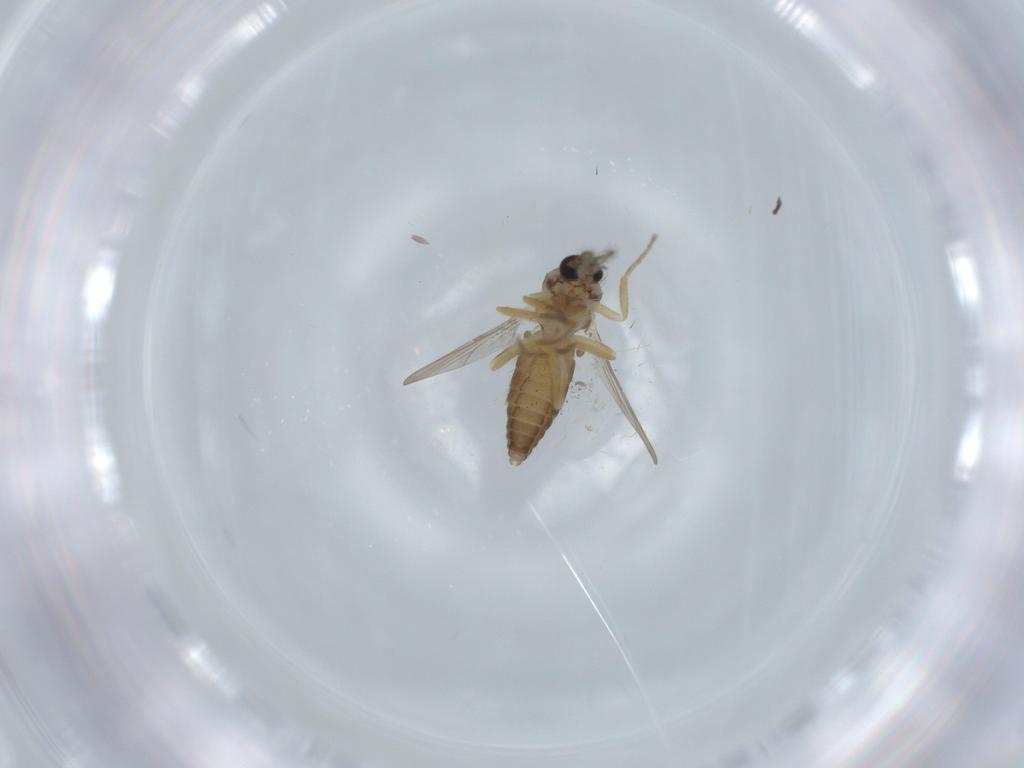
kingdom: Animalia
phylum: Arthropoda
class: Insecta
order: Diptera
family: Ceratopogonidae
